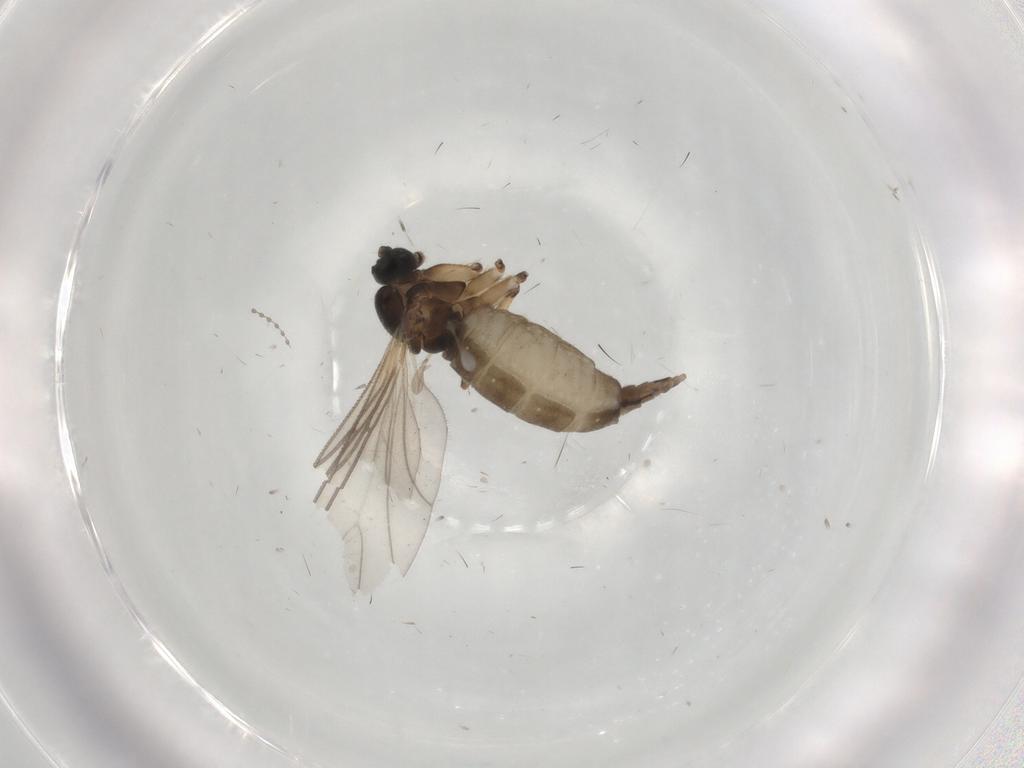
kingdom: Animalia
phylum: Arthropoda
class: Insecta
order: Diptera
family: Sciaridae
